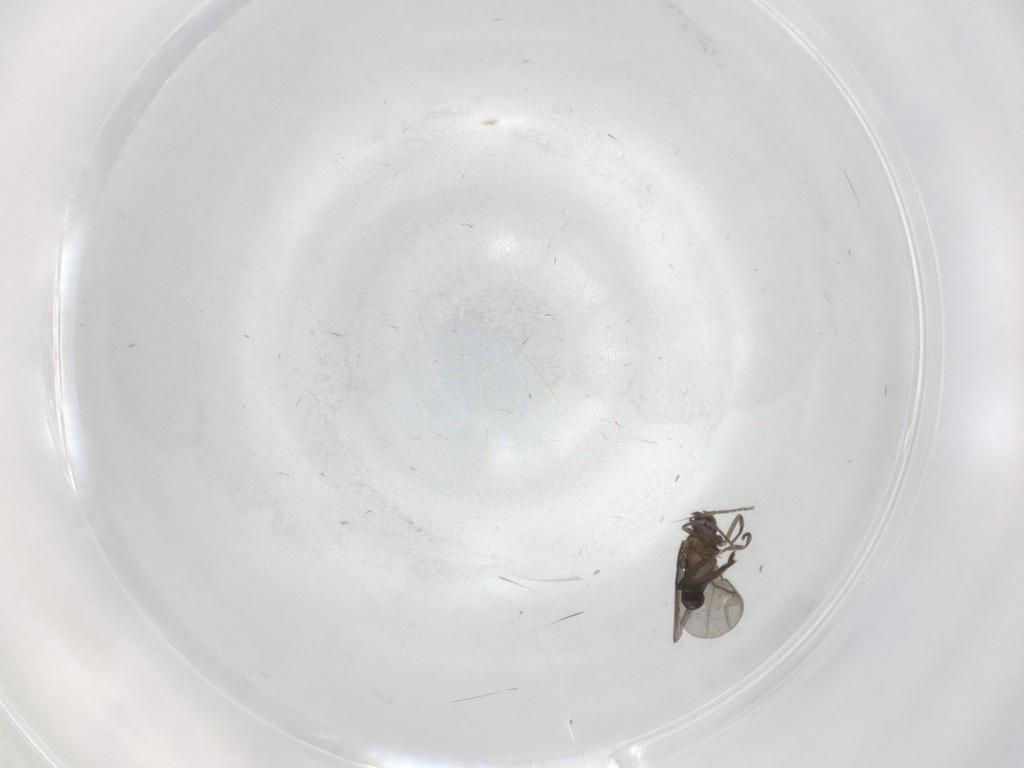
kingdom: Animalia
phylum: Arthropoda
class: Insecta
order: Diptera
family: Phoridae
